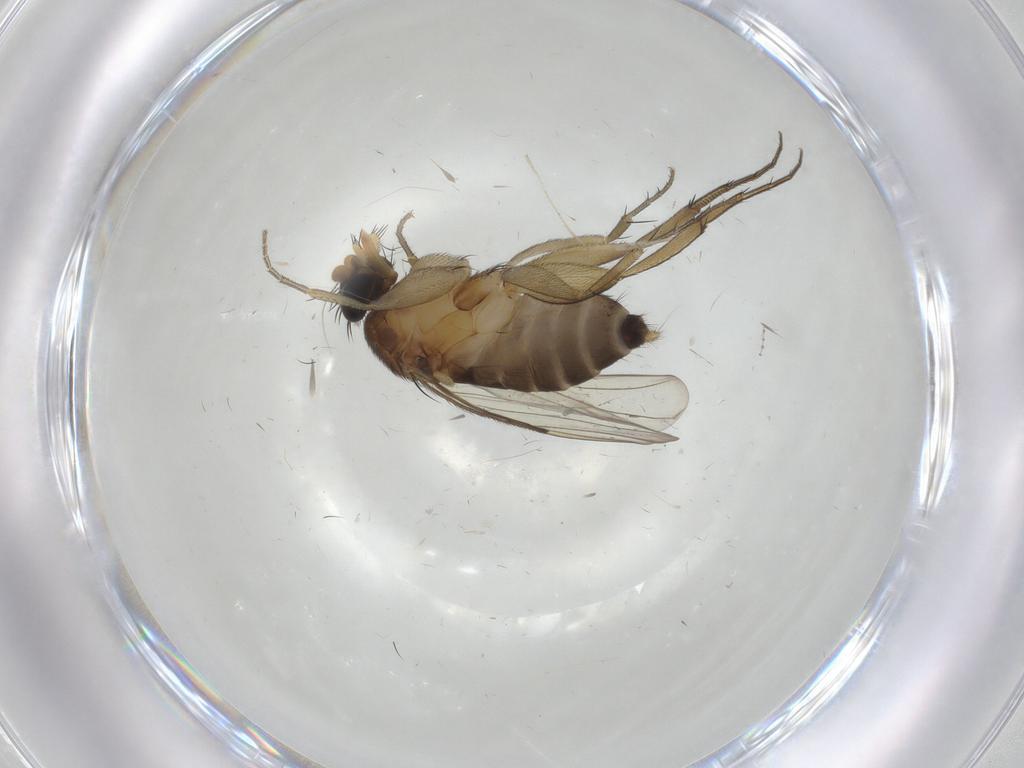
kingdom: Animalia
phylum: Arthropoda
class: Insecta
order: Diptera
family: Phoridae
